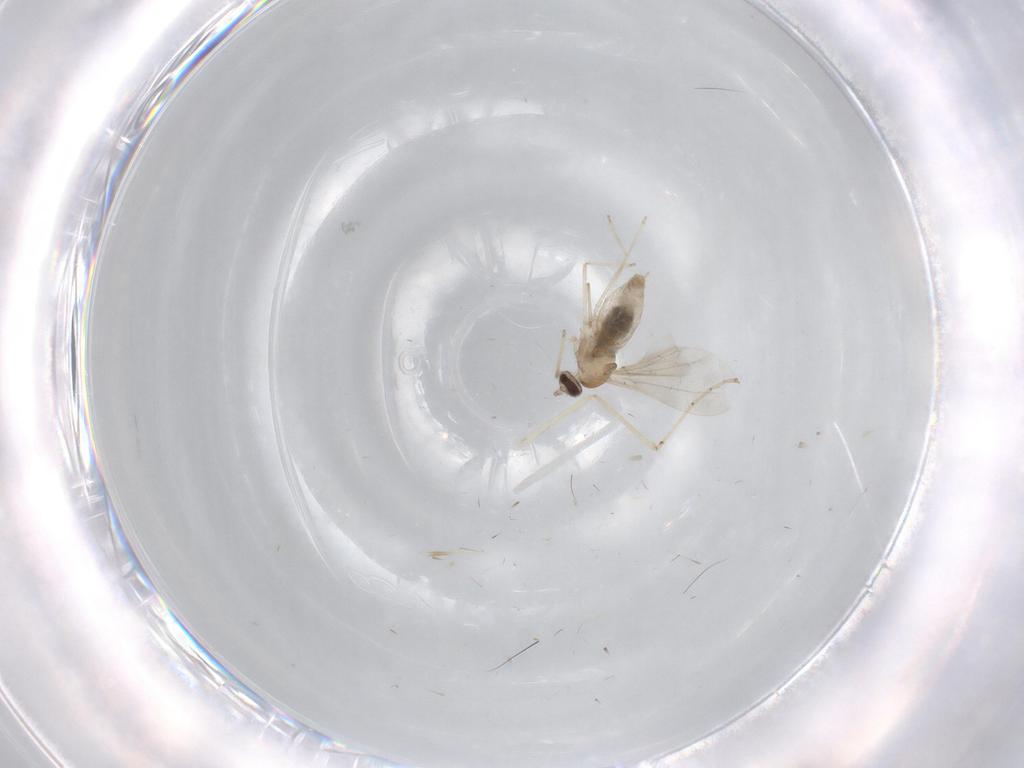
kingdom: Animalia
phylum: Arthropoda
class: Insecta
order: Diptera
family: Cecidomyiidae
